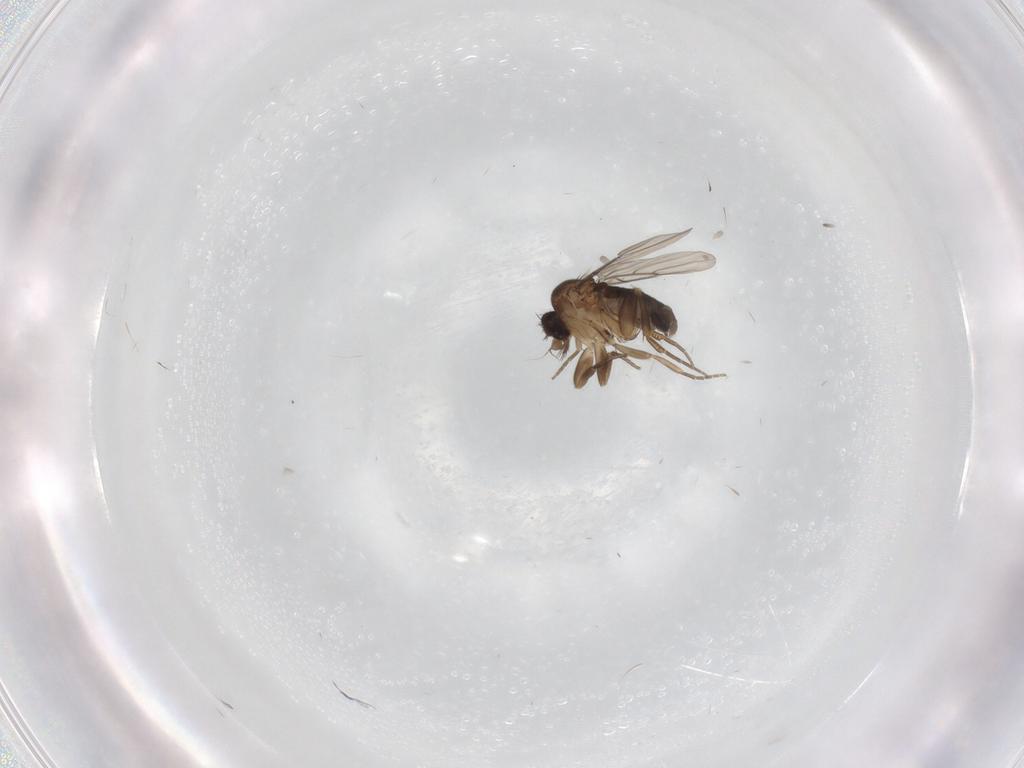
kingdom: Animalia
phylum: Arthropoda
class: Insecta
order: Diptera
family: Phoridae
